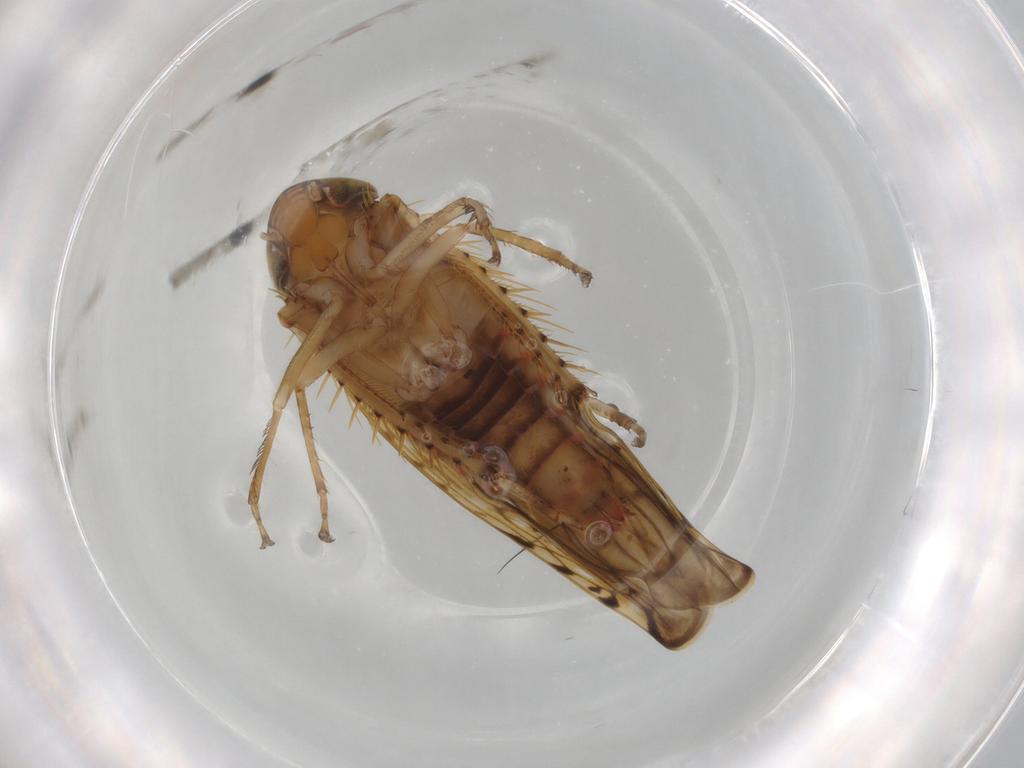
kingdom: Animalia
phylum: Arthropoda
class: Insecta
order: Hemiptera
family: Cicadellidae
